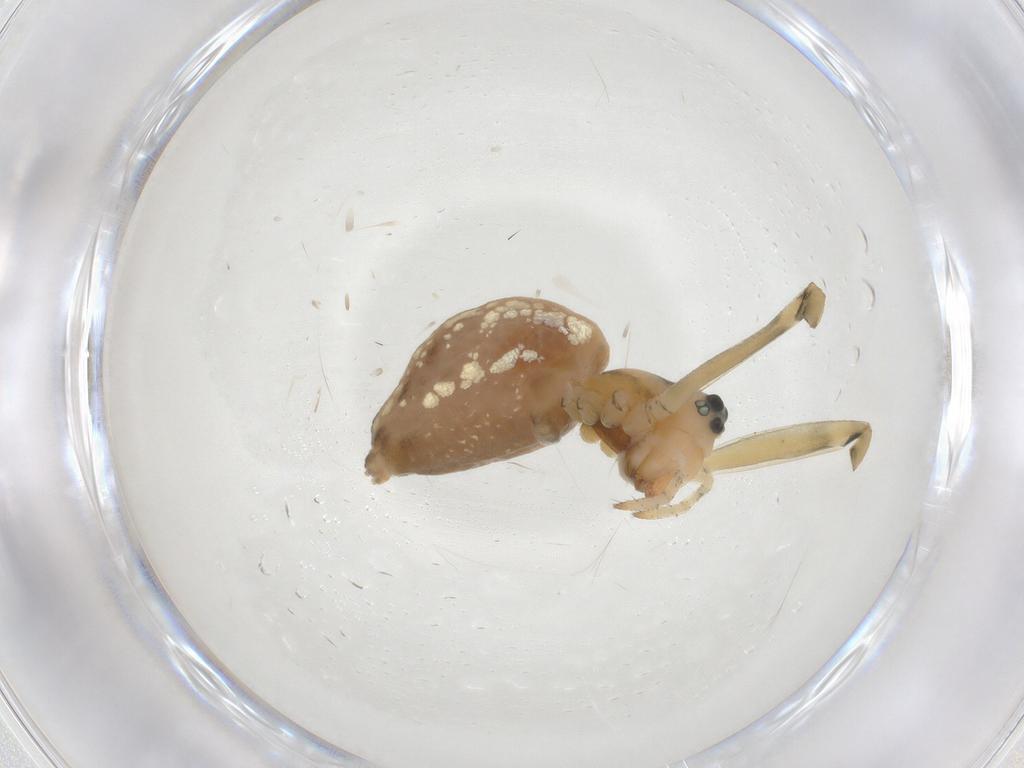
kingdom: Animalia
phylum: Arthropoda
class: Arachnida
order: Araneae
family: Linyphiidae
